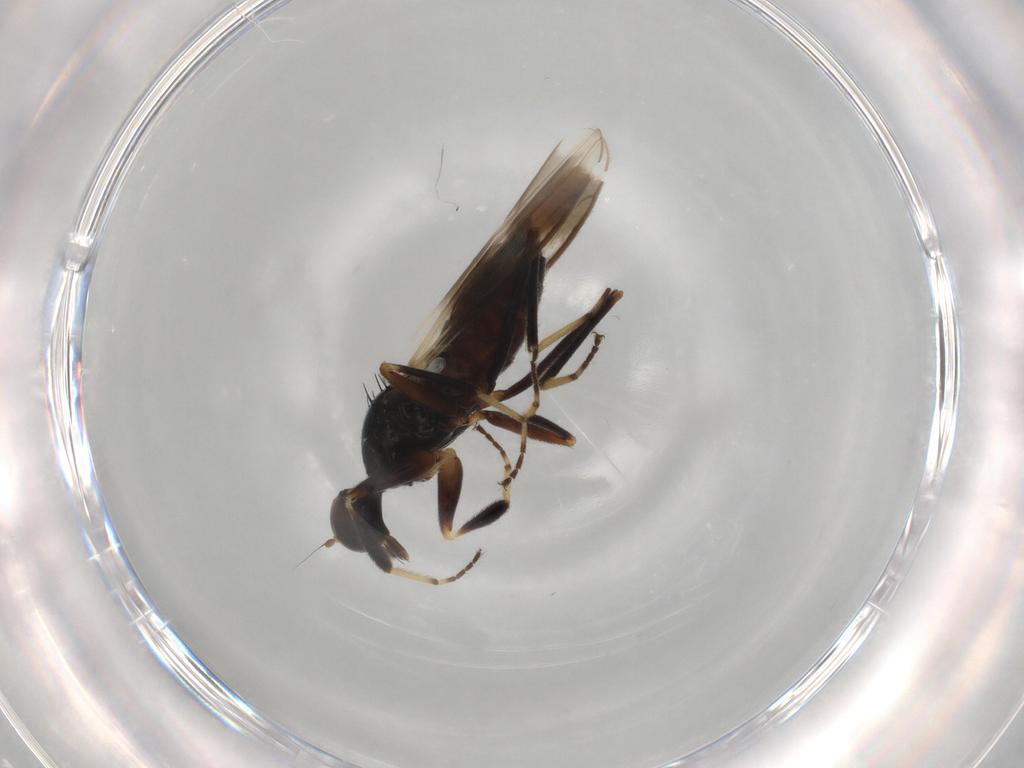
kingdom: Animalia
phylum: Arthropoda
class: Insecta
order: Diptera
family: Hybotidae
